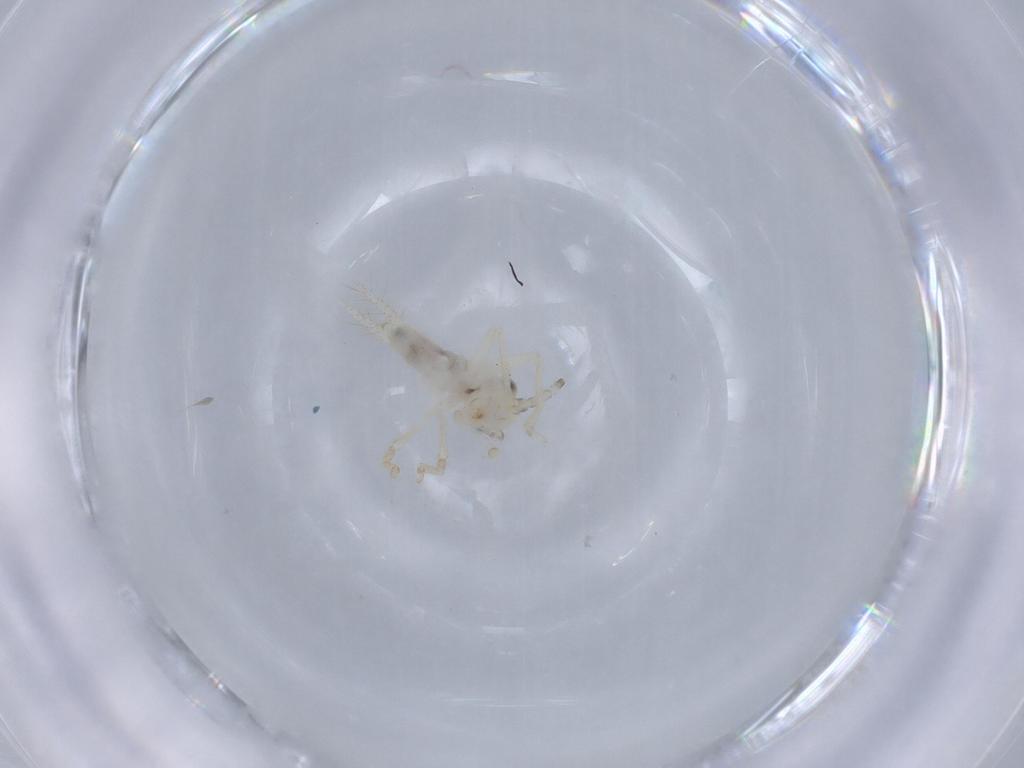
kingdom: Animalia
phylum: Arthropoda
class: Insecta
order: Orthoptera
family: Trigonidiidae
